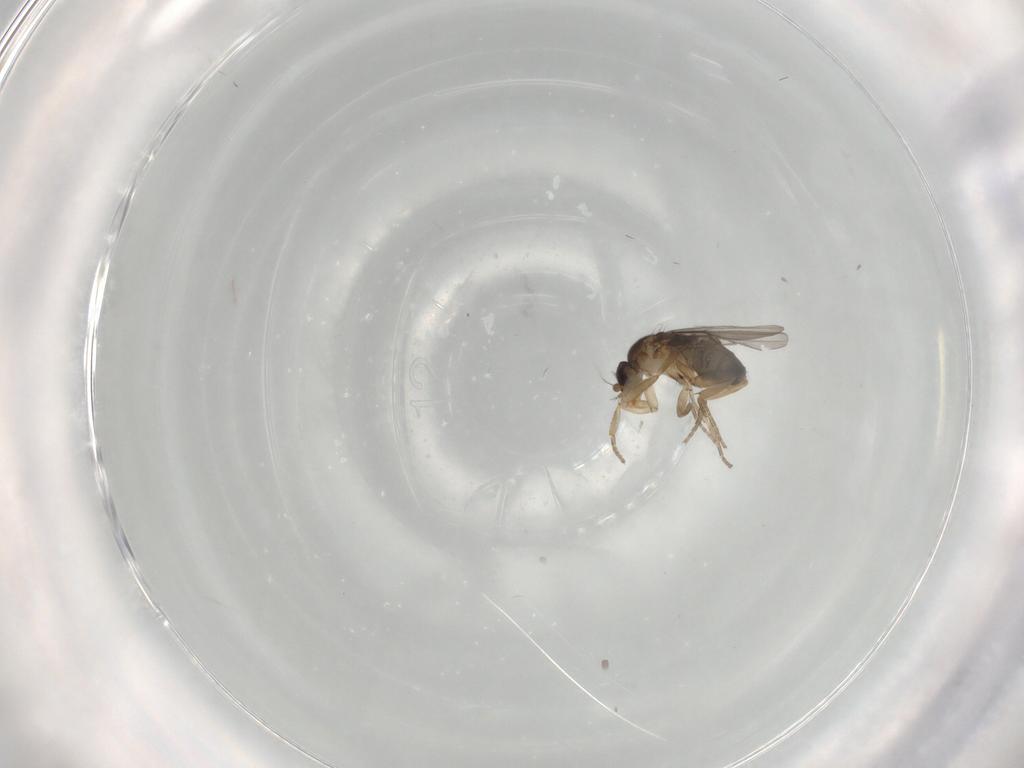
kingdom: Animalia
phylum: Arthropoda
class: Insecta
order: Diptera
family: Phoridae
